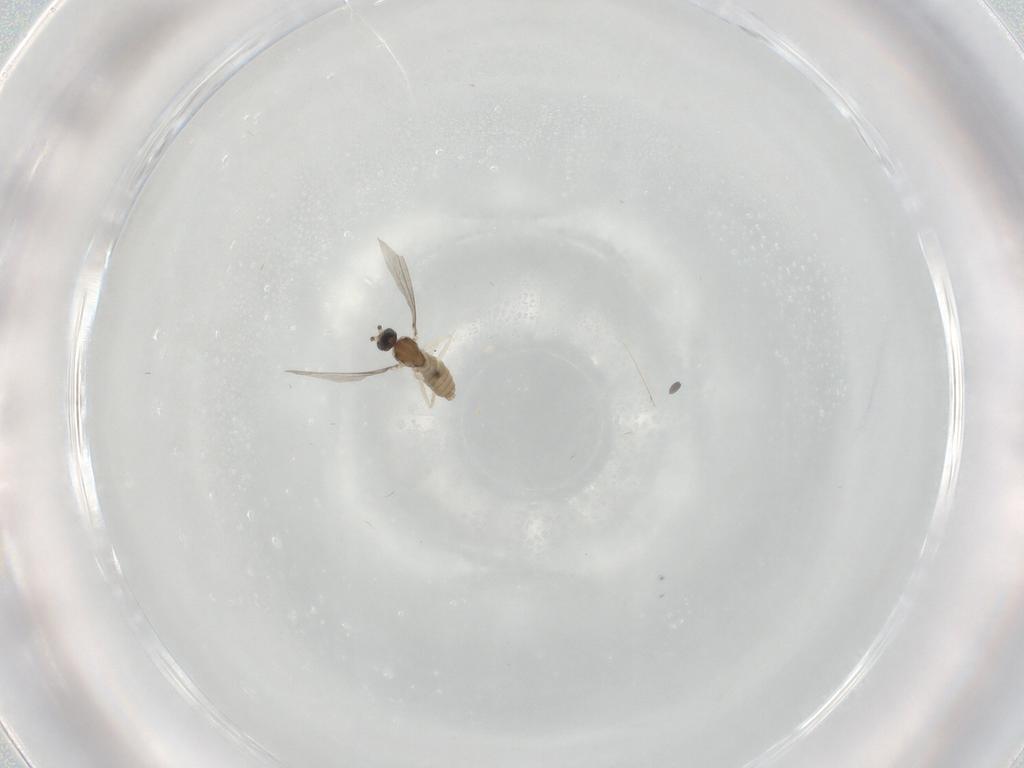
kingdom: Animalia
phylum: Arthropoda
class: Insecta
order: Diptera
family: Cecidomyiidae
